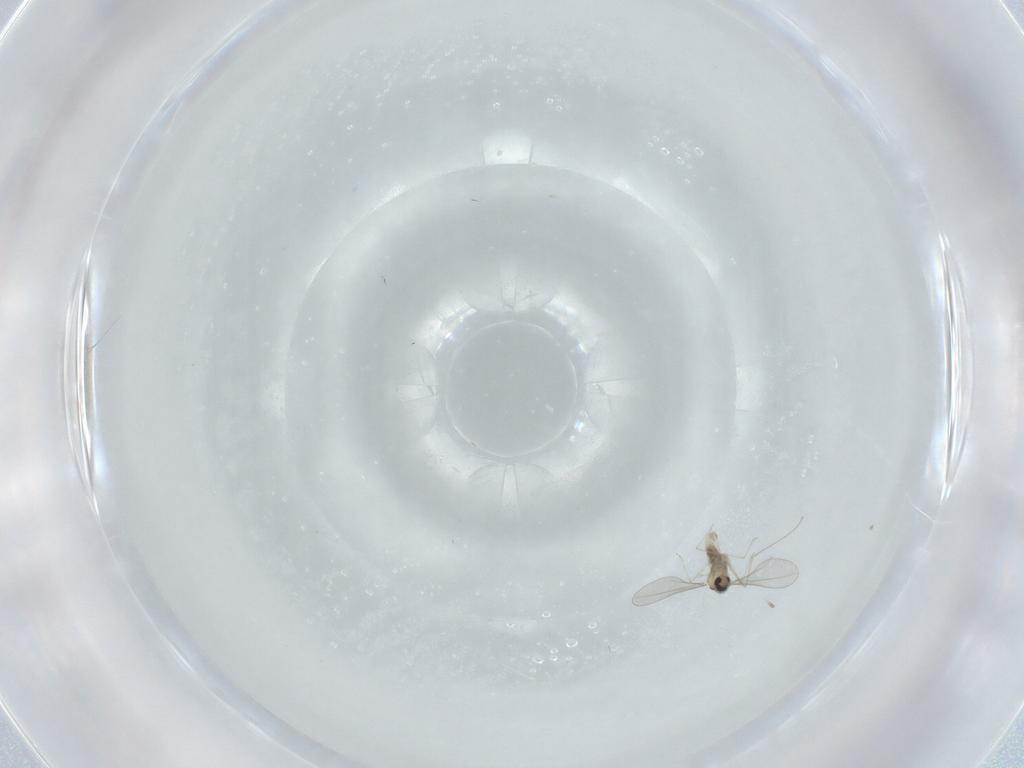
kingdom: Animalia
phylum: Arthropoda
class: Insecta
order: Diptera
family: Cecidomyiidae
